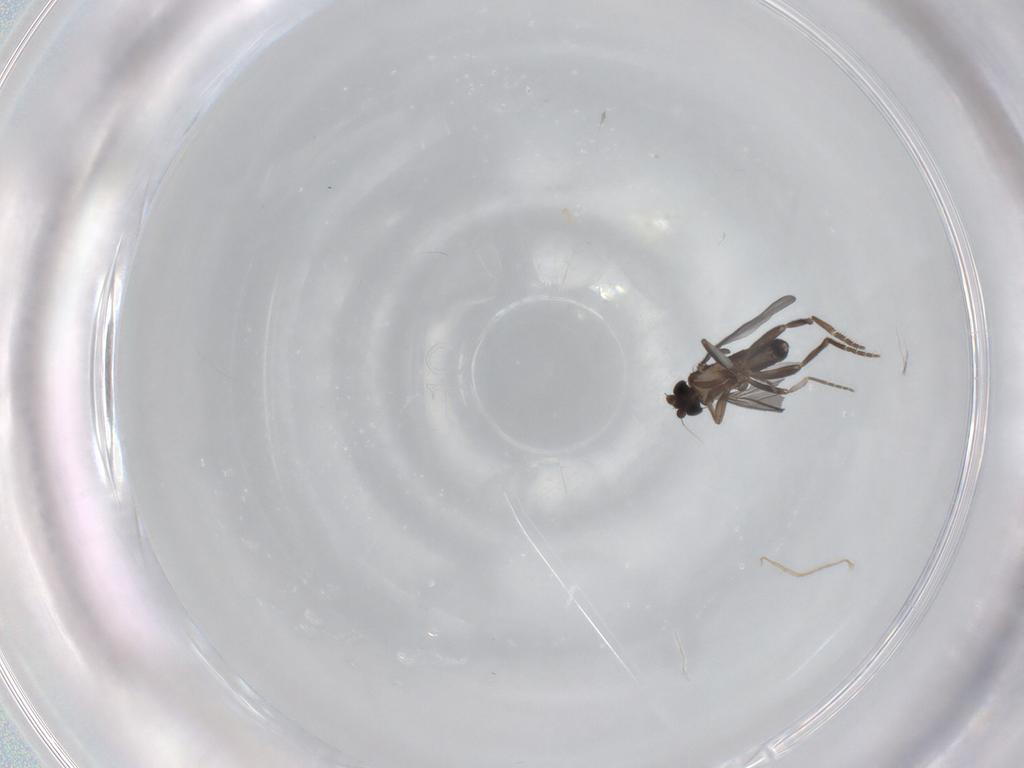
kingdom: Animalia
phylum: Arthropoda
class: Insecta
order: Diptera
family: Phoridae
